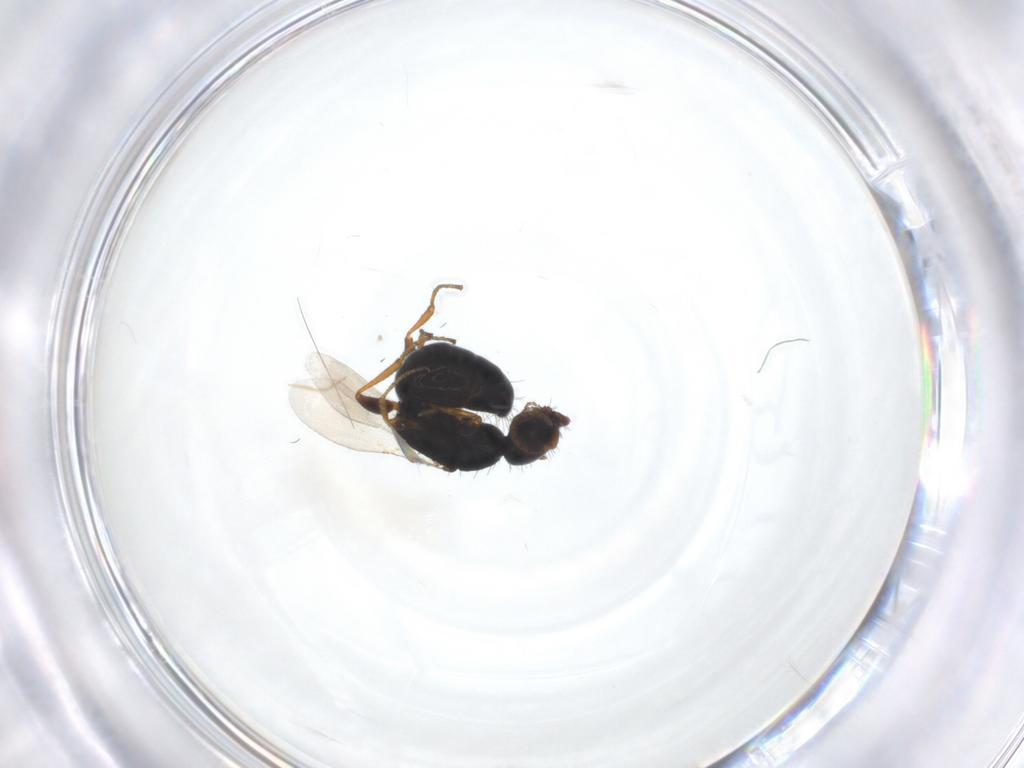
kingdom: Animalia
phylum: Arthropoda
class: Insecta
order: Hymenoptera
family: Bethylidae
